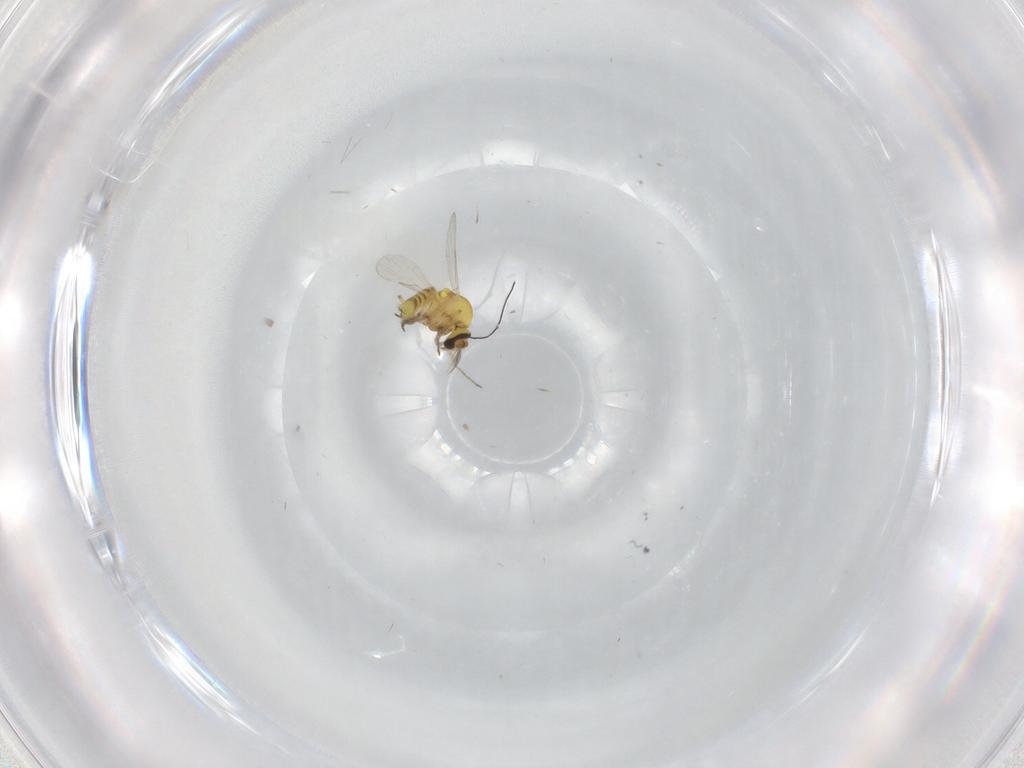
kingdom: Animalia
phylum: Arthropoda
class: Insecta
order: Diptera
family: Ceratopogonidae
